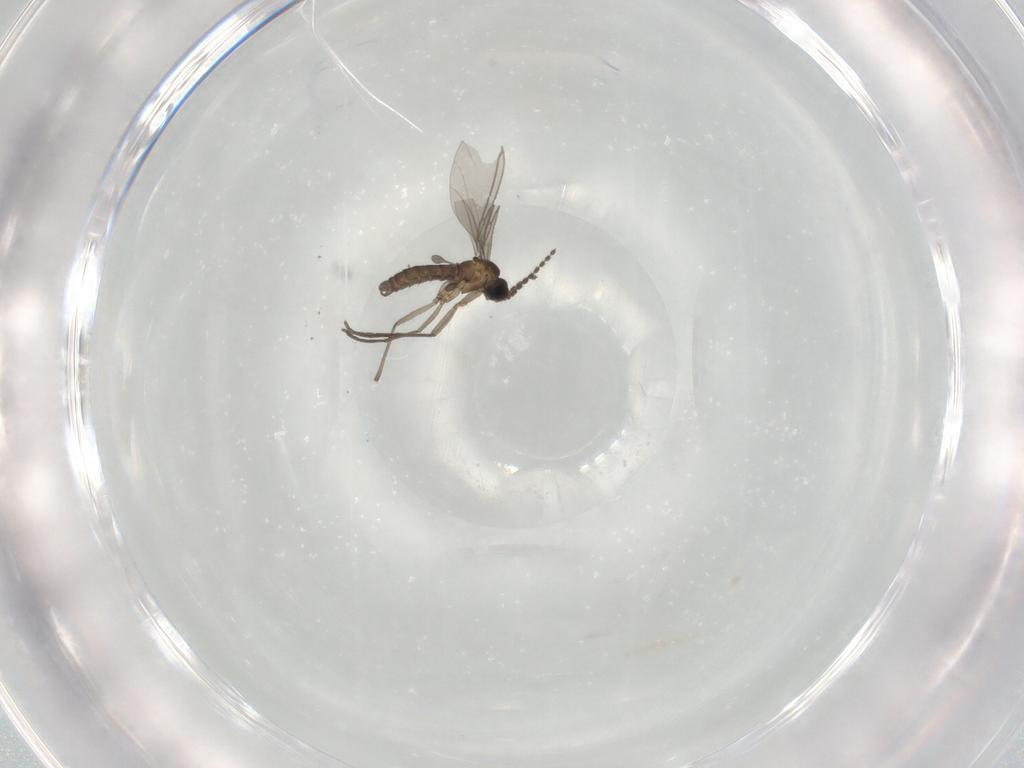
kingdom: Animalia
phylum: Arthropoda
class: Insecta
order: Diptera
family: Sciaridae
